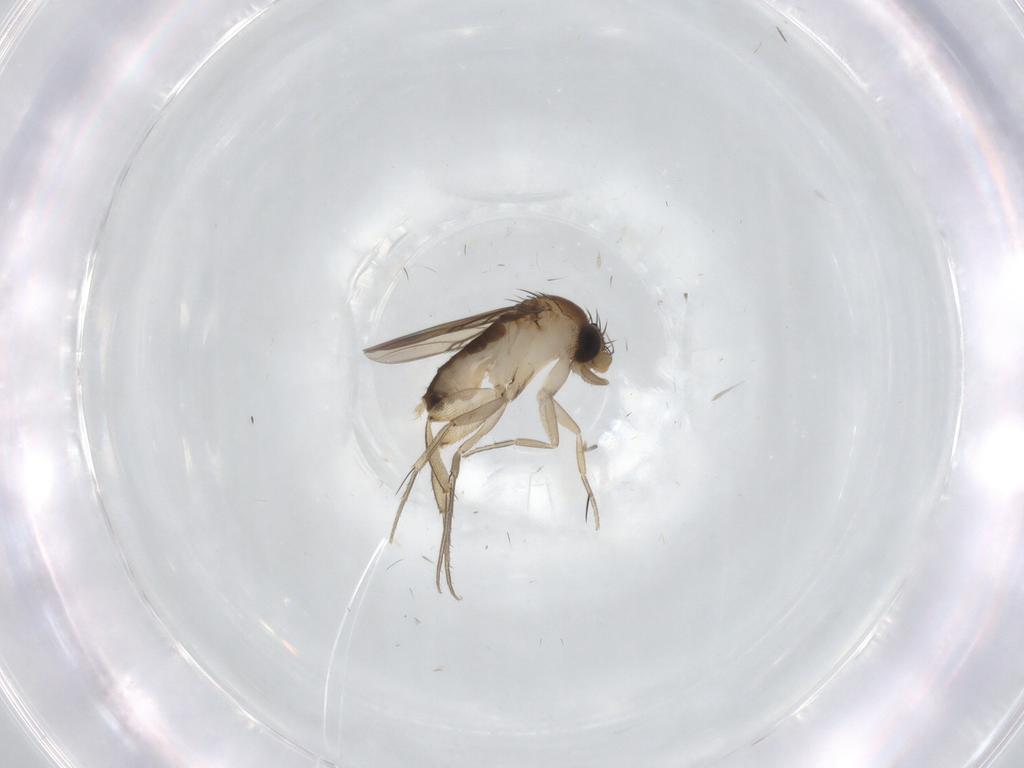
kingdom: Animalia
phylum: Arthropoda
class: Insecta
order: Diptera
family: Phoridae
